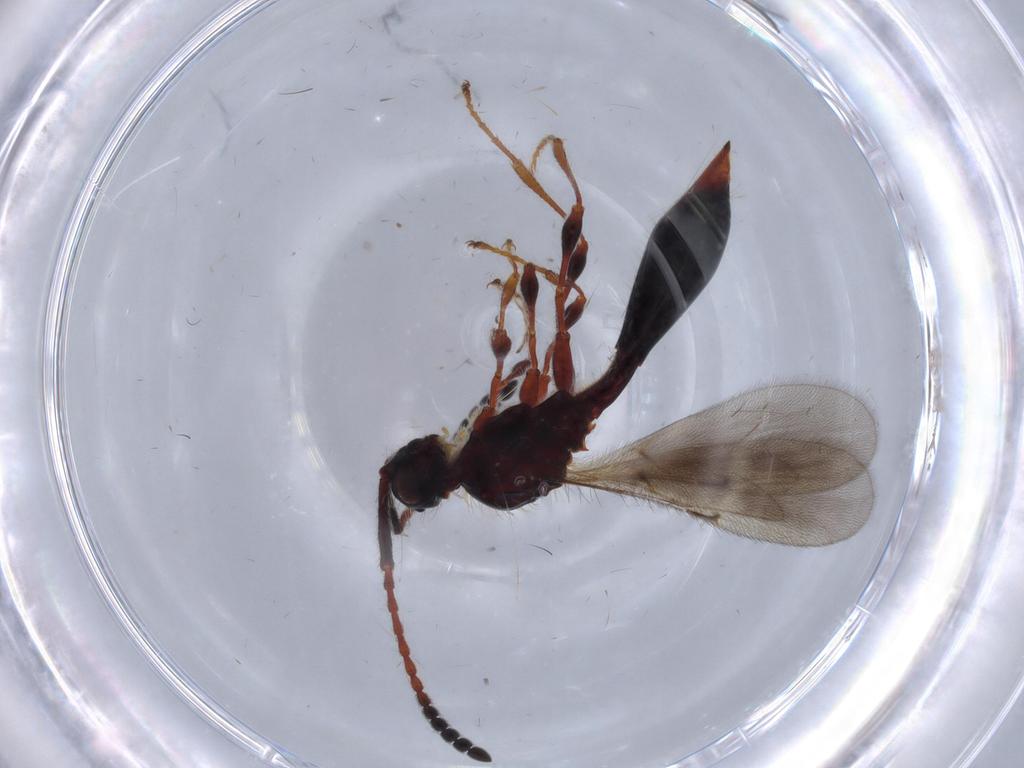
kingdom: Animalia
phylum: Arthropoda
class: Insecta
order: Hymenoptera
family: Diapriidae
